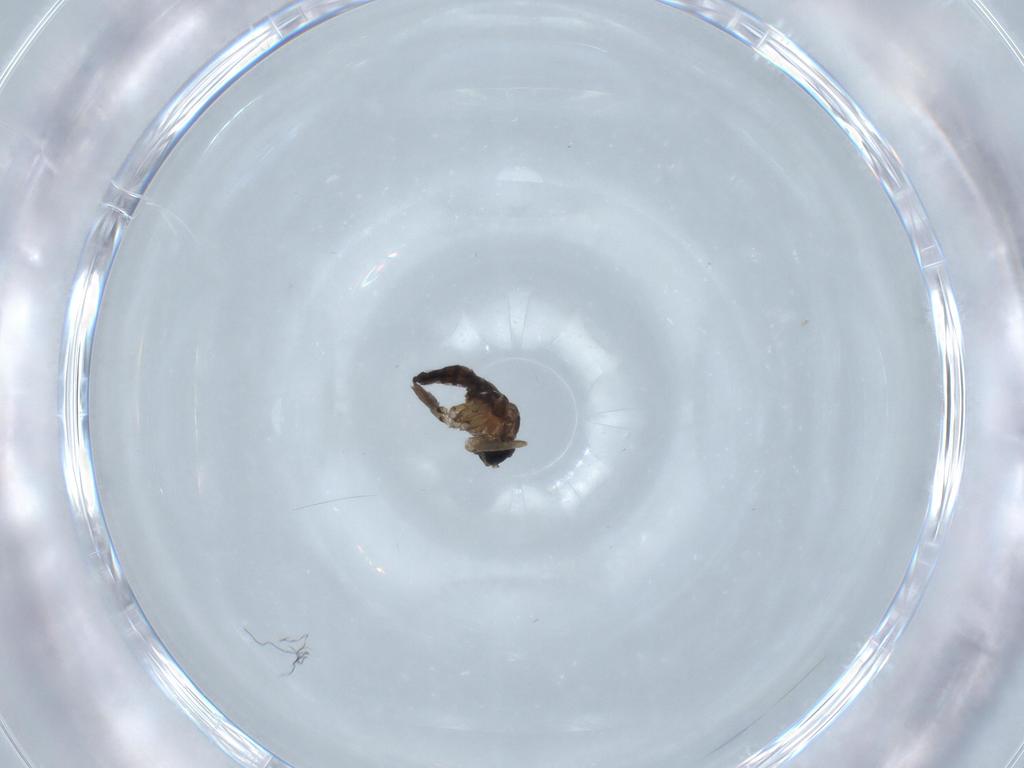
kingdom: Animalia
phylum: Arthropoda
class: Insecta
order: Diptera
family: Sciaridae
